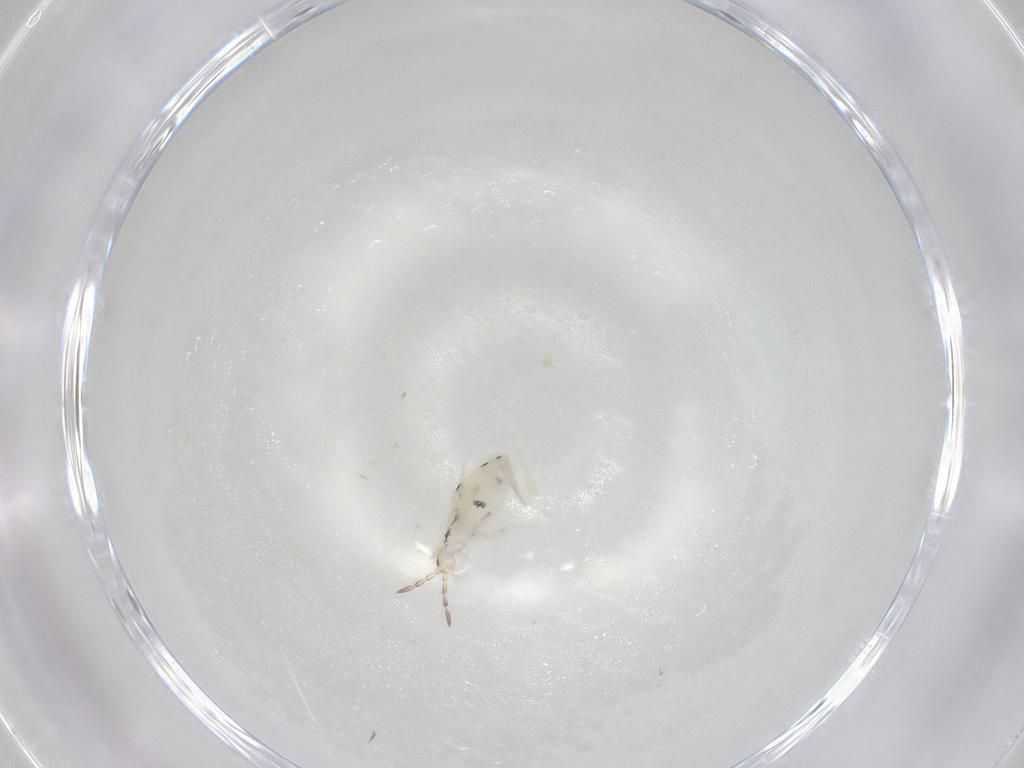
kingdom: Animalia
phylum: Arthropoda
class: Collembola
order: Entomobryomorpha
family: Entomobryidae
